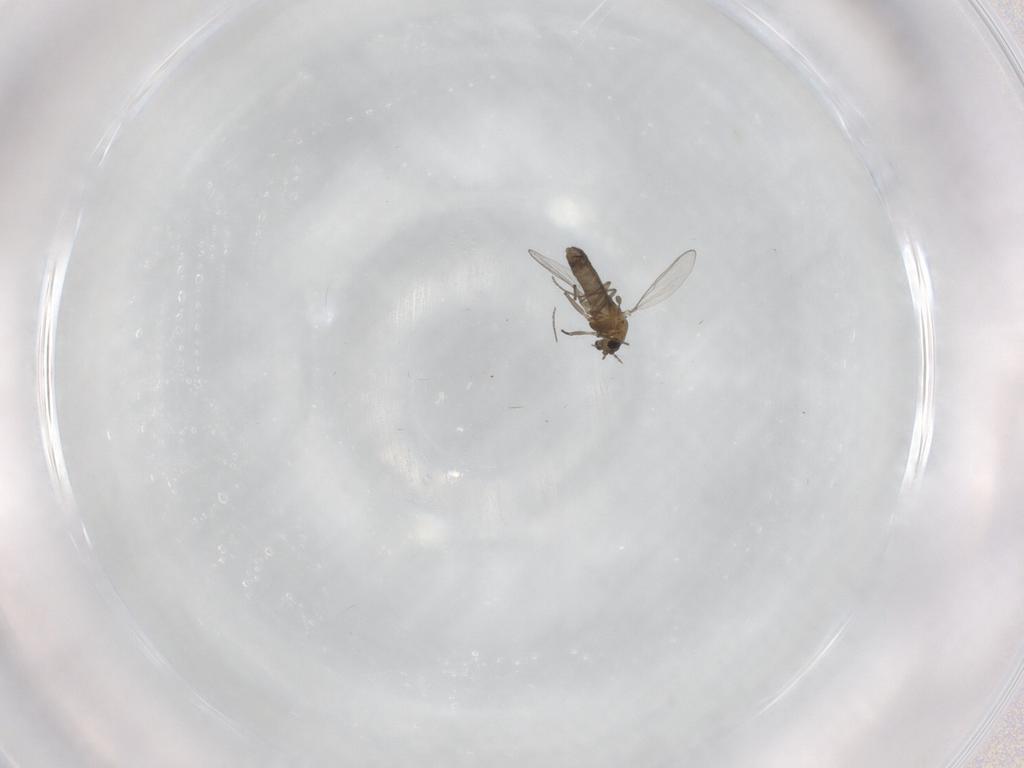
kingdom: Animalia
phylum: Arthropoda
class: Insecta
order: Diptera
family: Chironomidae
